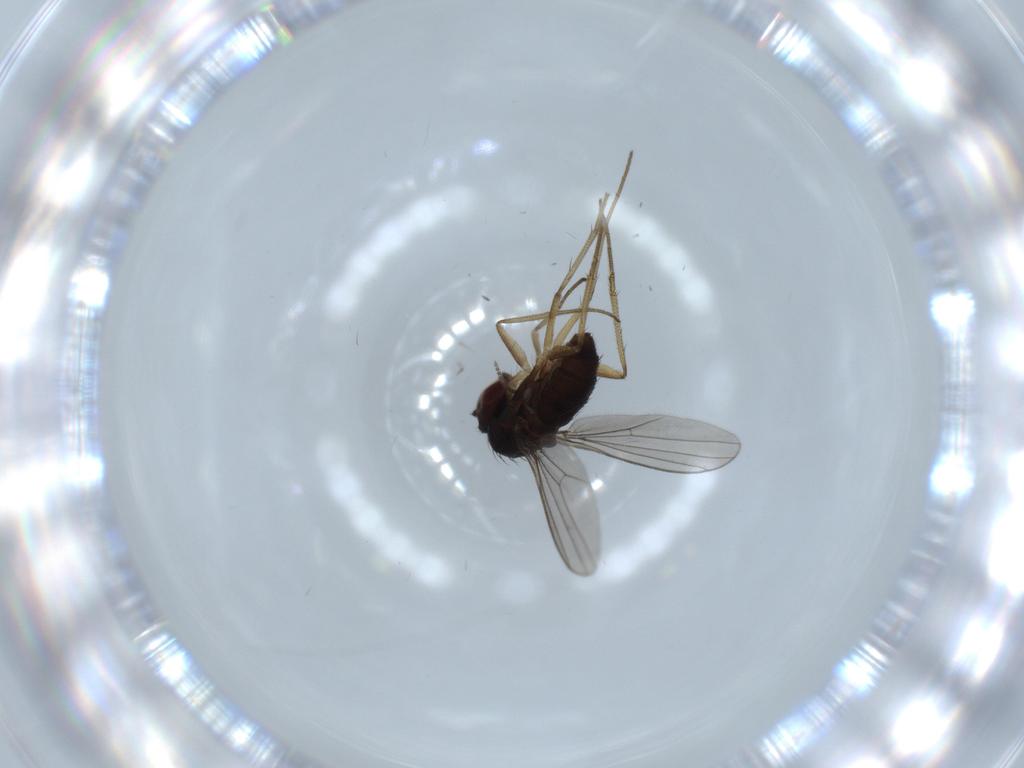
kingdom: Animalia
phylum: Arthropoda
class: Insecta
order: Diptera
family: Dolichopodidae
